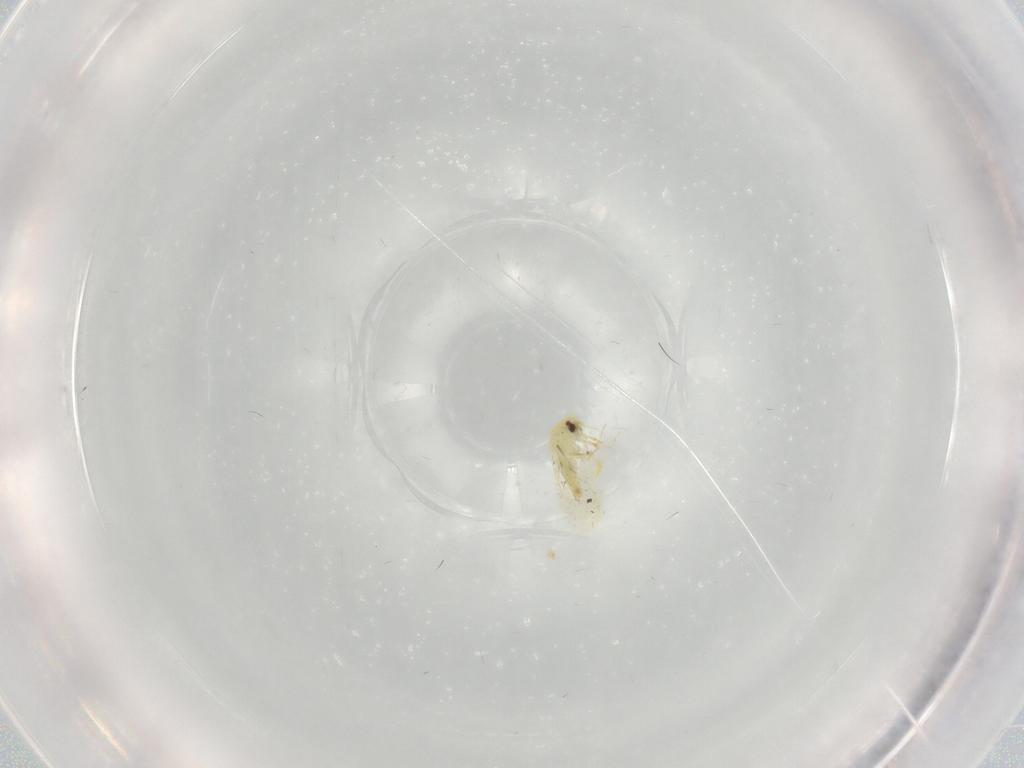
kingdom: Animalia
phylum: Arthropoda
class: Insecta
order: Hemiptera
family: Aleyrodidae
